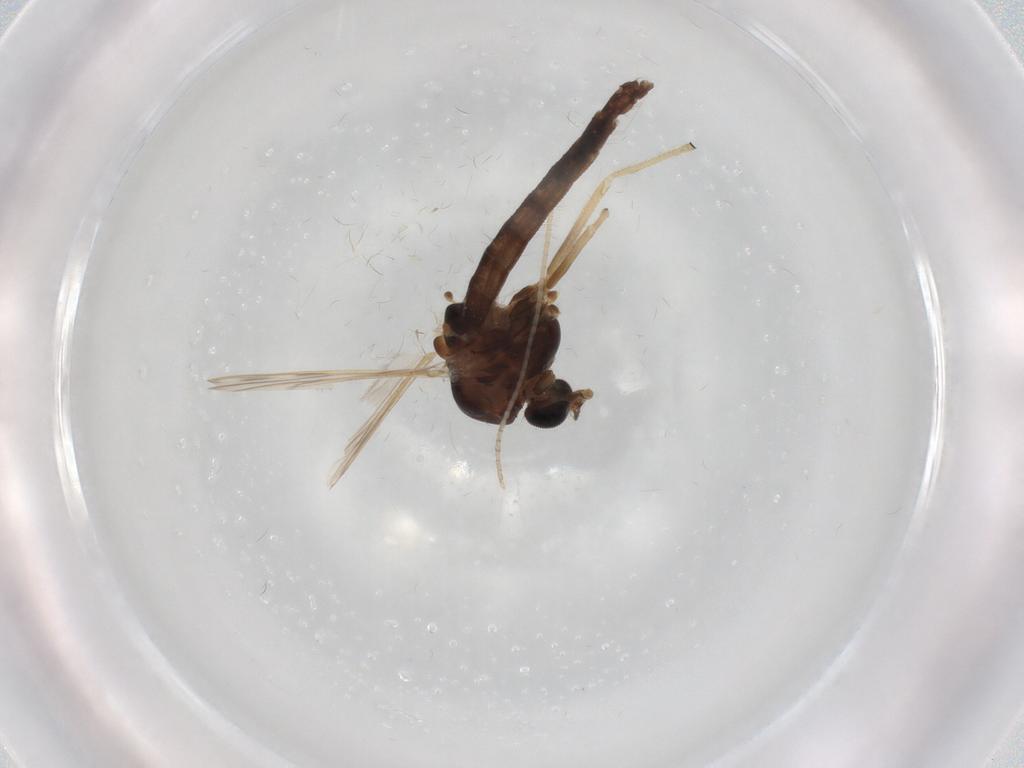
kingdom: Animalia
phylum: Arthropoda
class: Insecta
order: Diptera
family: Chironomidae
